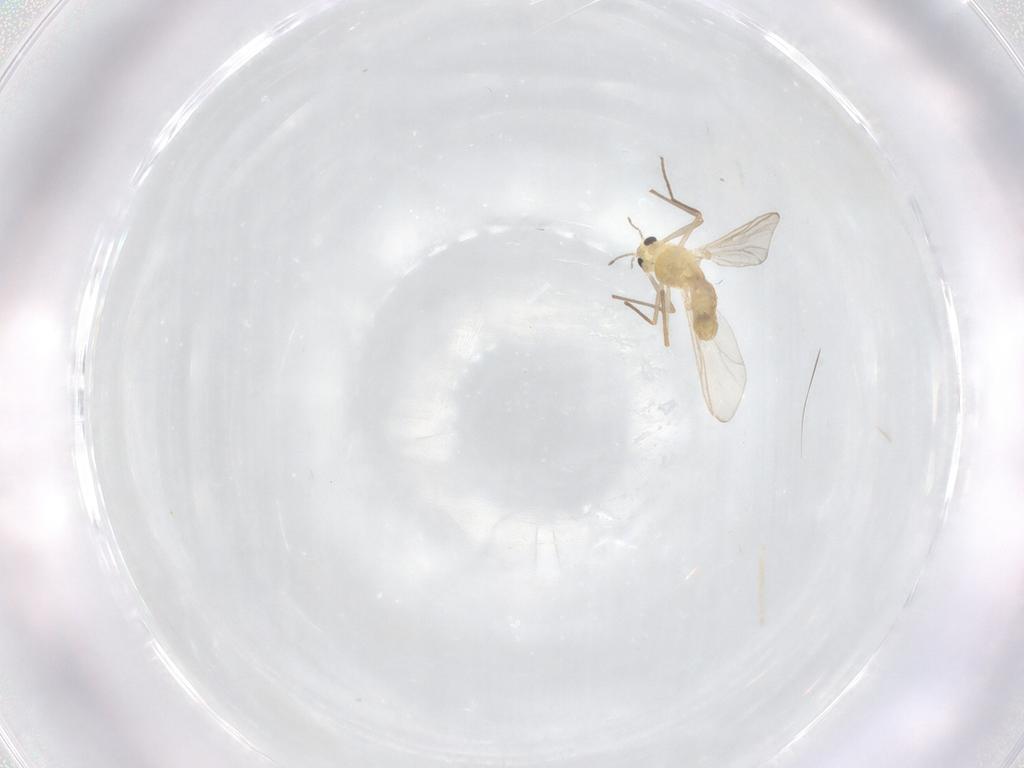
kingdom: Animalia
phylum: Arthropoda
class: Insecta
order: Diptera
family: Chironomidae
